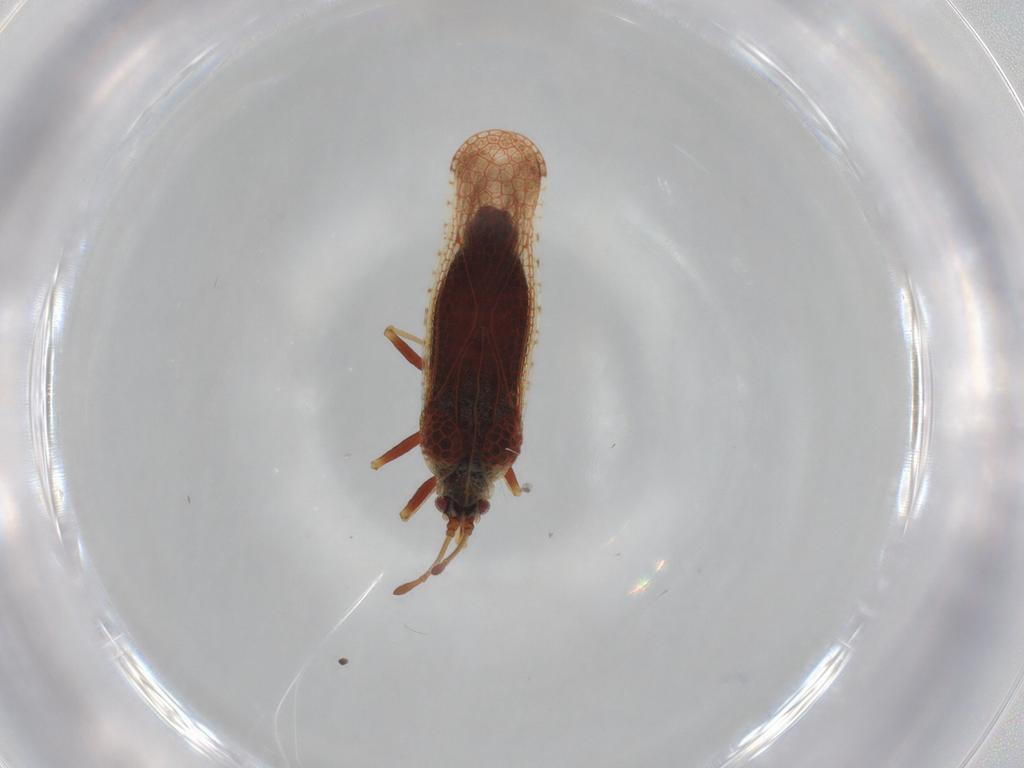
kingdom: Animalia
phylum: Arthropoda
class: Insecta
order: Hemiptera
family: Tingidae
